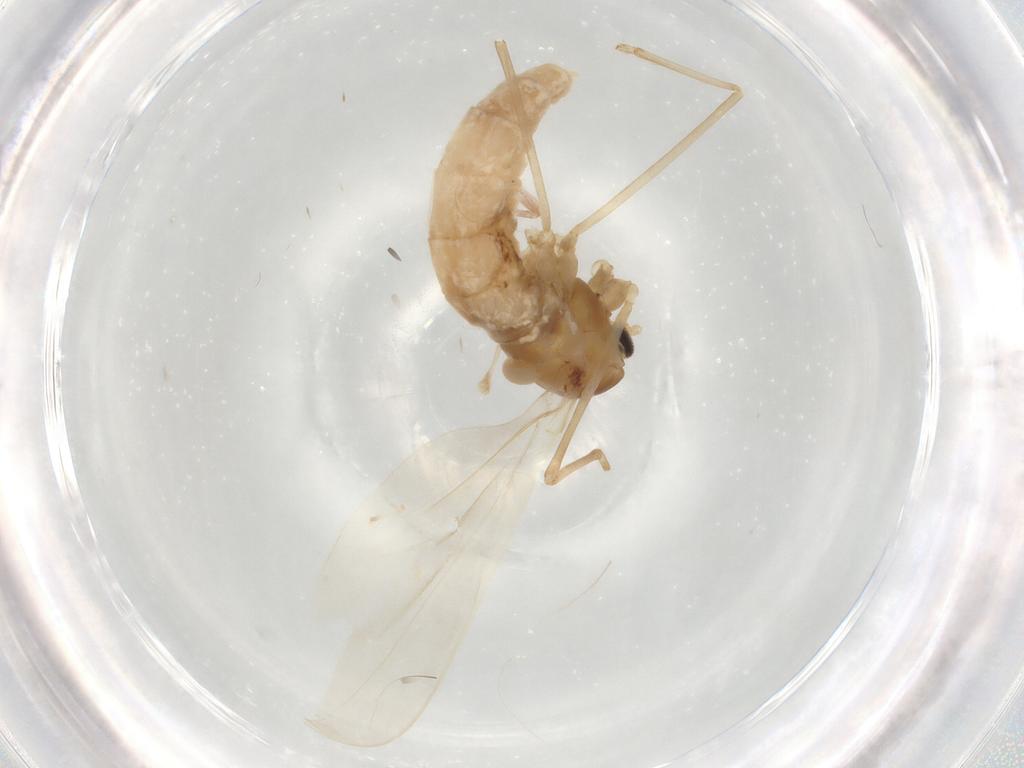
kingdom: Animalia
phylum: Arthropoda
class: Insecta
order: Diptera
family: Cecidomyiidae
